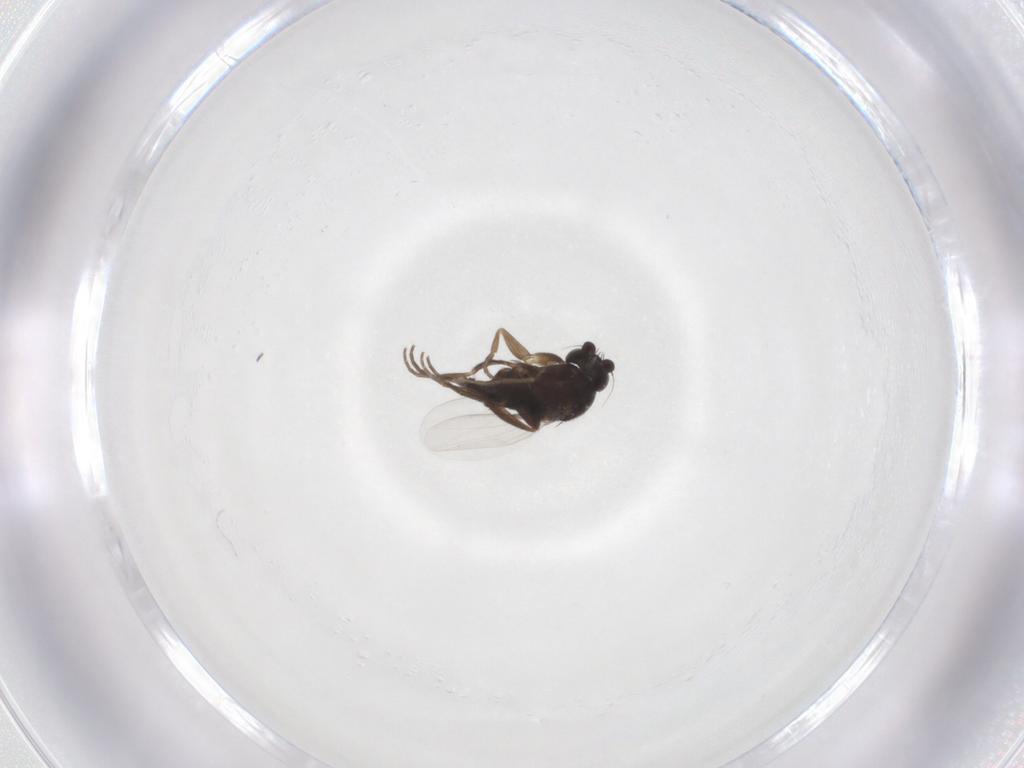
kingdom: Animalia
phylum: Arthropoda
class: Insecta
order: Diptera
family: Phoridae
